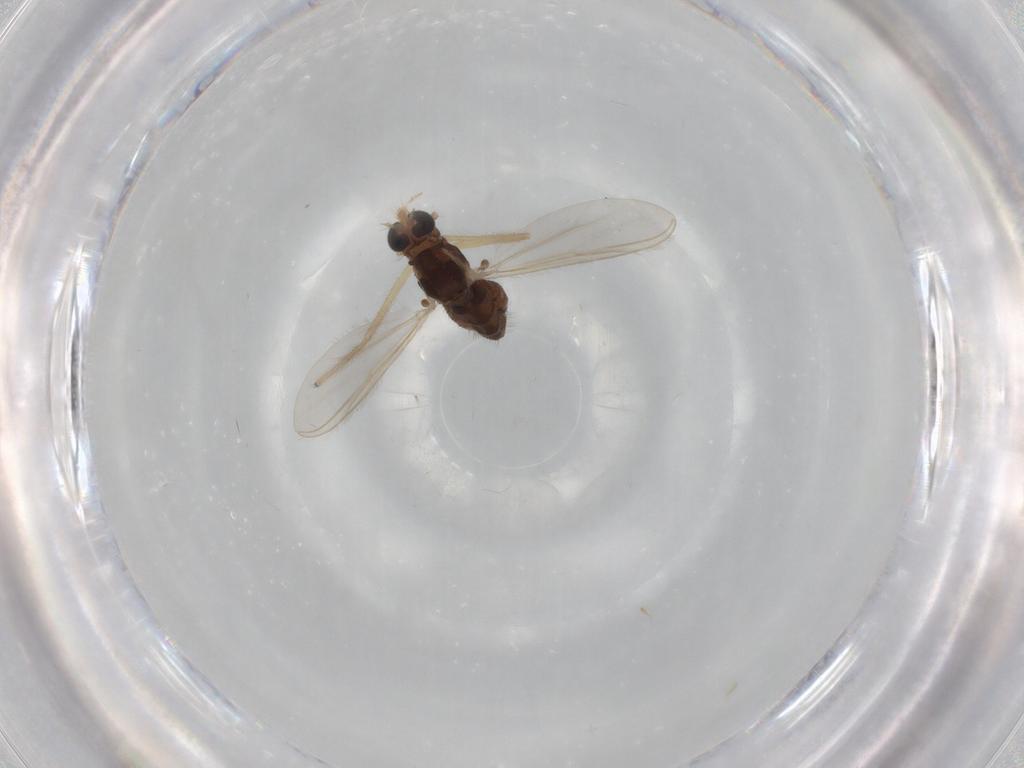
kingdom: Animalia
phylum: Arthropoda
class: Insecta
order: Diptera
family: Chironomidae
